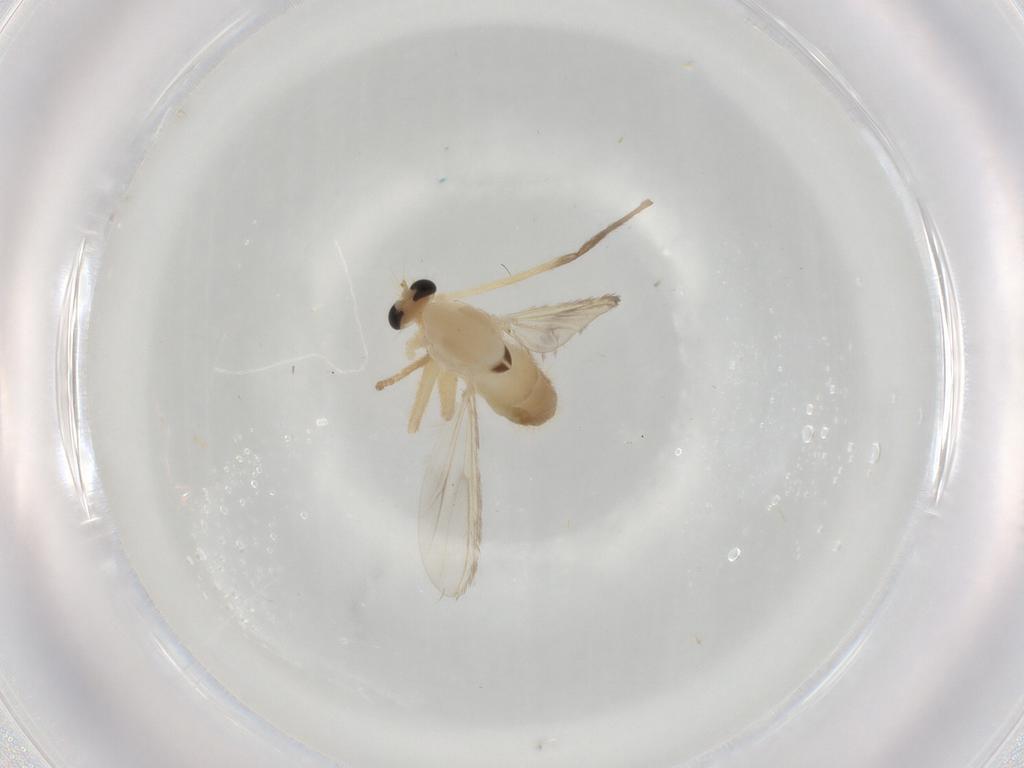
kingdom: Animalia
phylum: Arthropoda
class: Insecta
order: Diptera
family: Chironomidae
